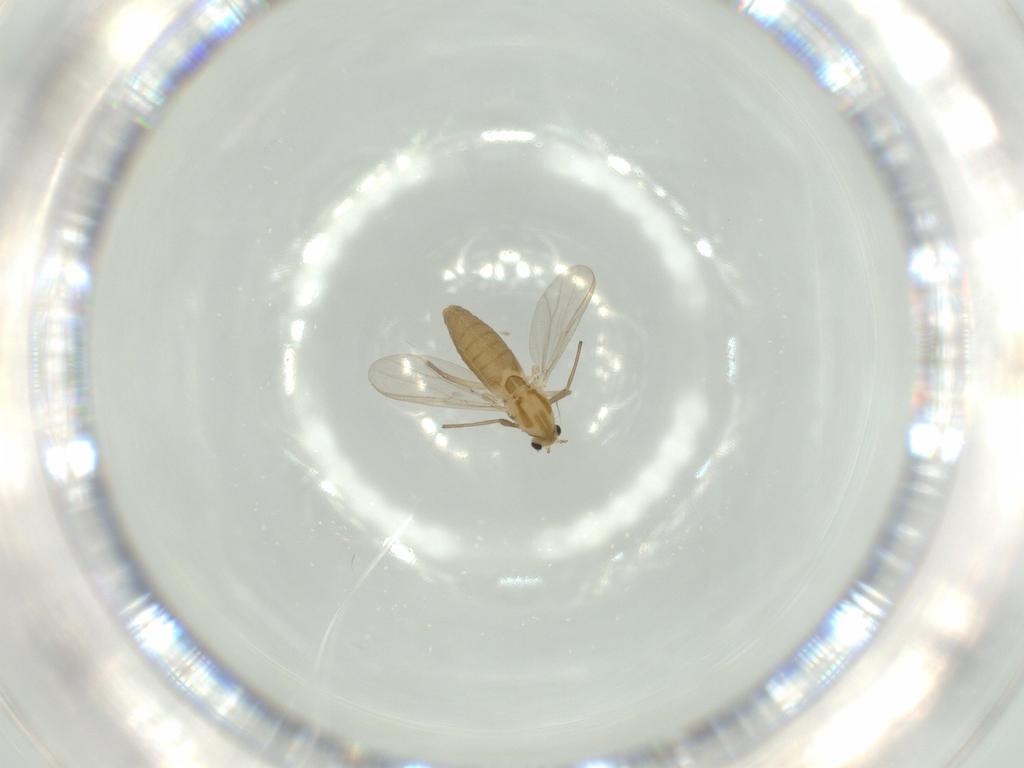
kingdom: Animalia
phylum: Arthropoda
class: Insecta
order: Diptera
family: Chironomidae
